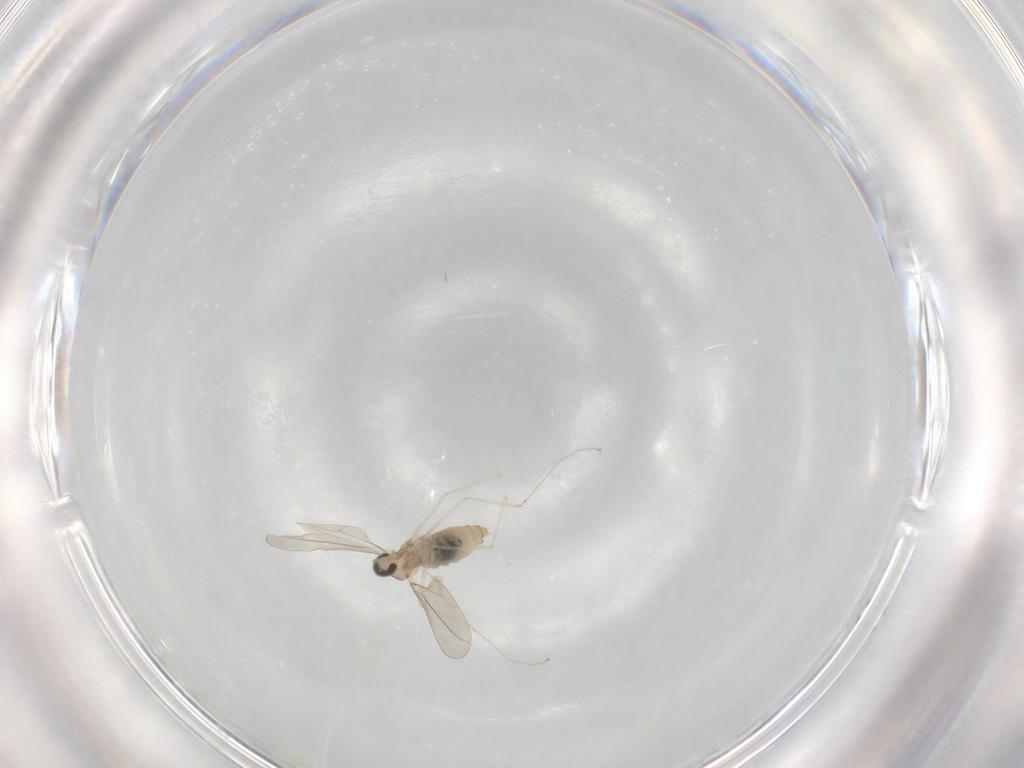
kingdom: Animalia
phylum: Arthropoda
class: Insecta
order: Diptera
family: Cecidomyiidae
